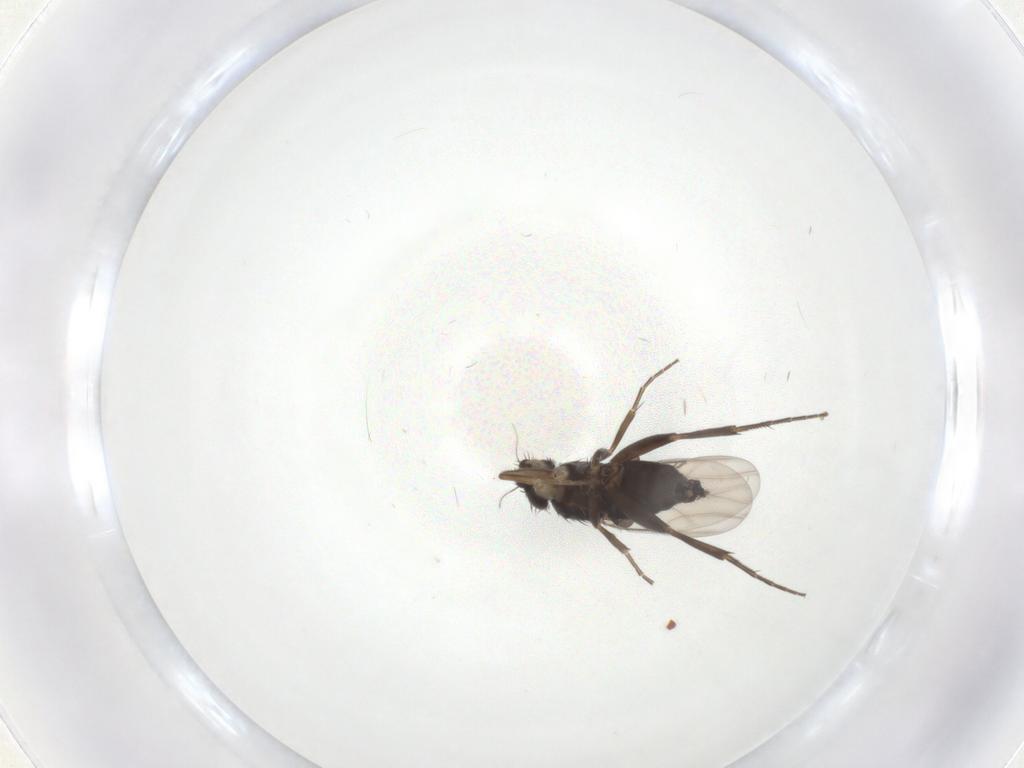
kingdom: Animalia
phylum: Arthropoda
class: Insecta
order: Diptera
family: Phoridae
